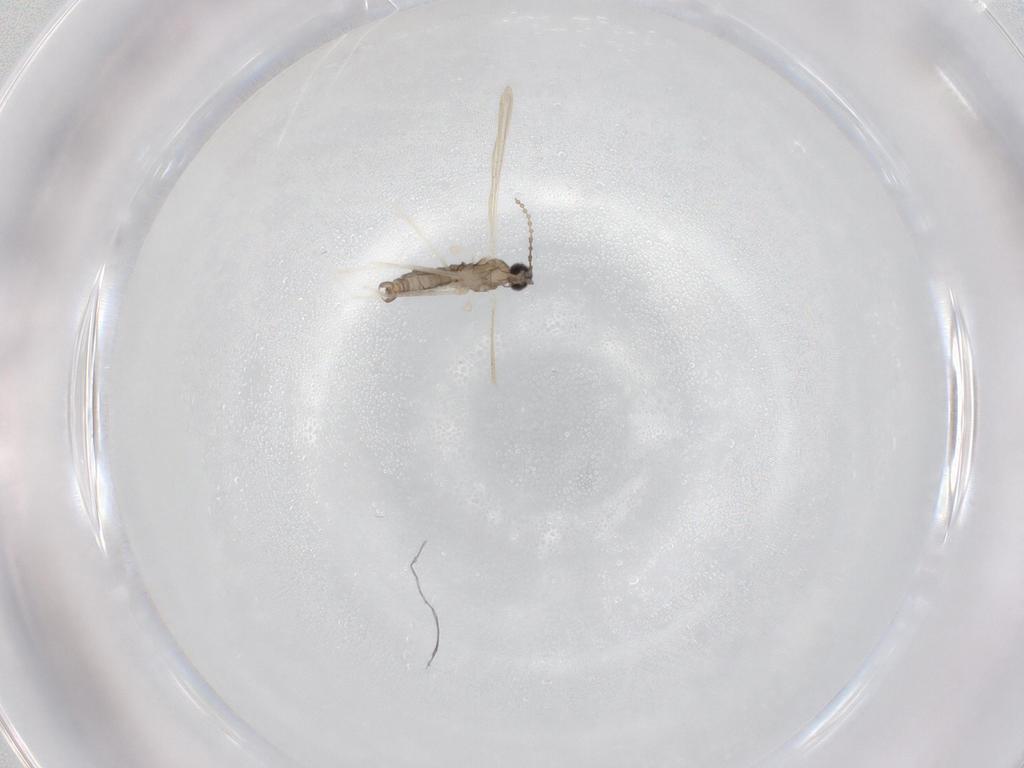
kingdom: Animalia
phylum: Arthropoda
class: Insecta
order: Diptera
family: Cecidomyiidae
